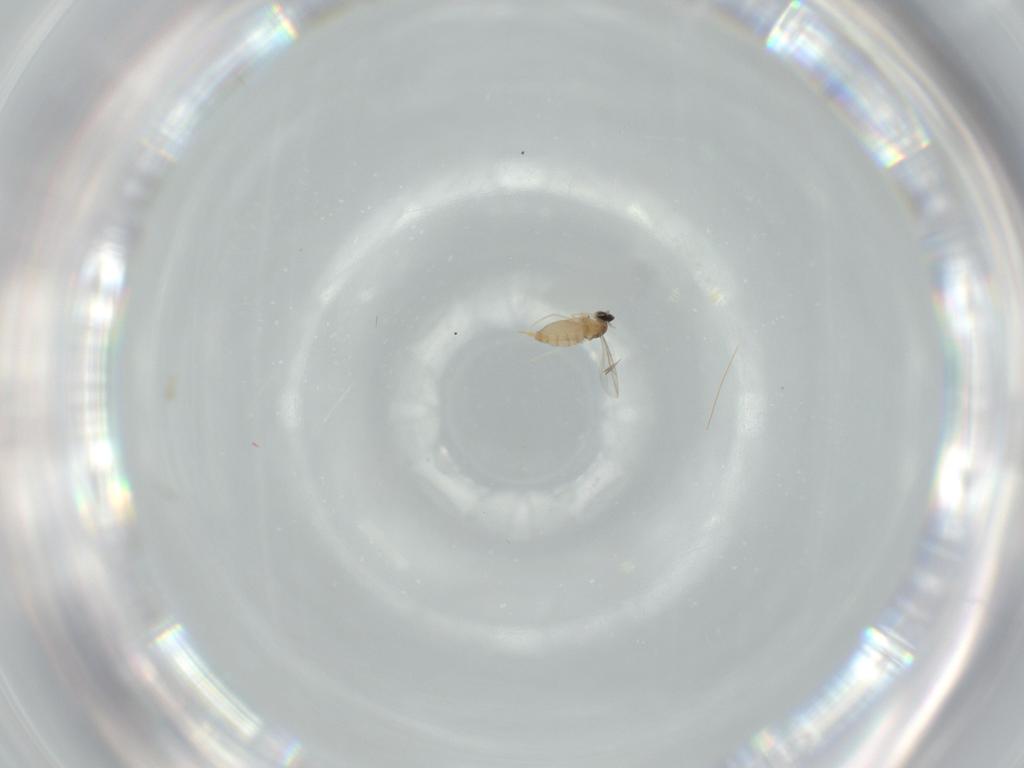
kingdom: Animalia
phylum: Arthropoda
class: Insecta
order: Diptera
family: Cecidomyiidae
